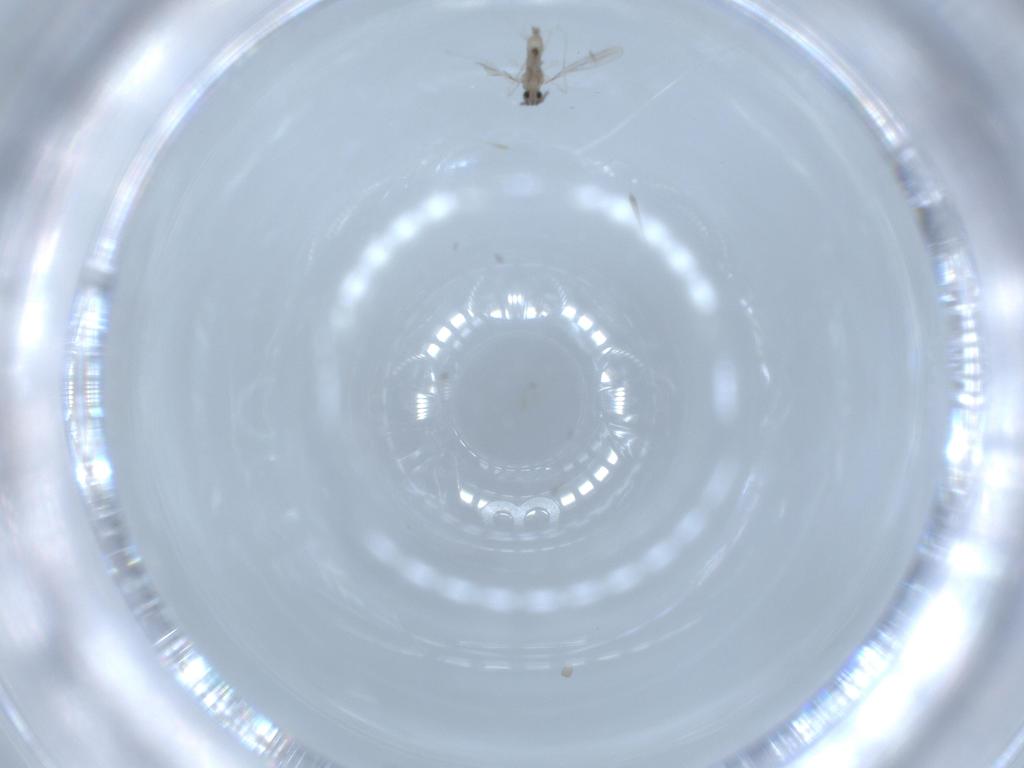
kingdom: Animalia
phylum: Arthropoda
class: Insecta
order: Diptera
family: Cecidomyiidae
